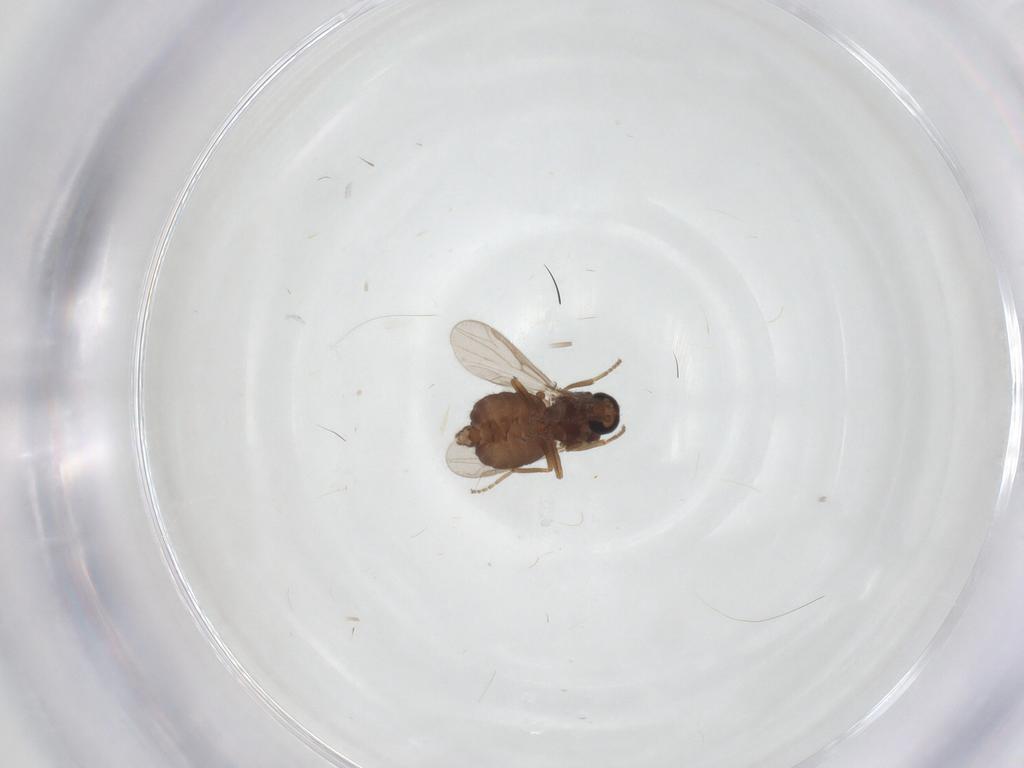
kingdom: Animalia
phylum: Arthropoda
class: Insecta
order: Diptera
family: Ceratopogonidae
